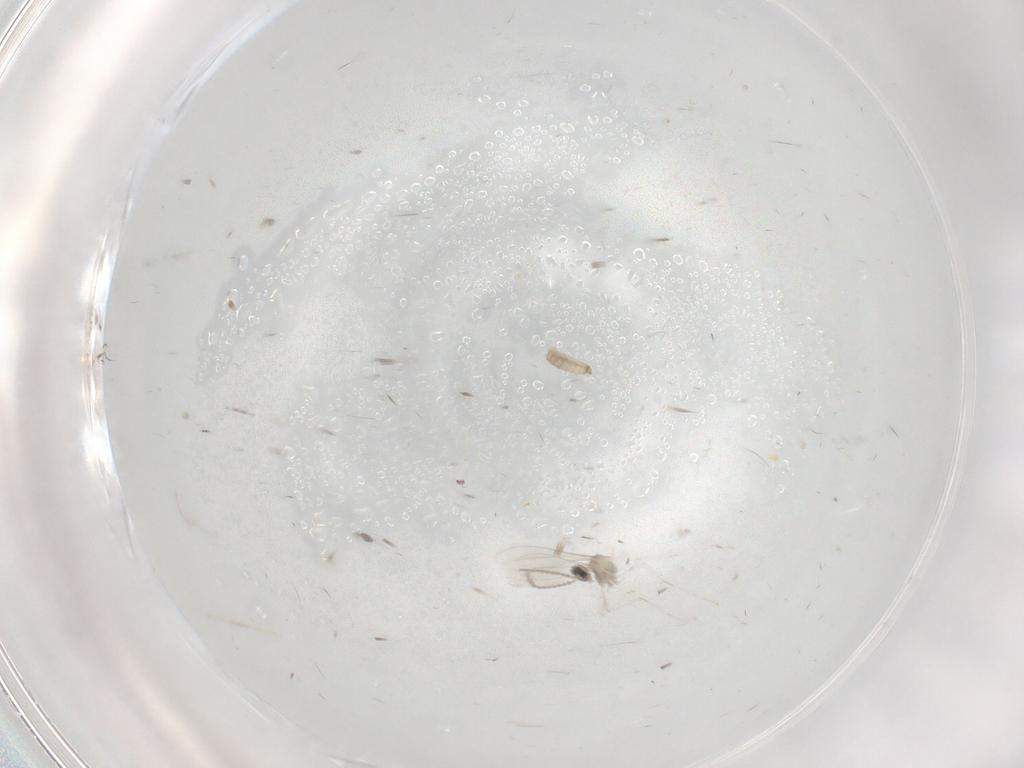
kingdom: Animalia
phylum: Arthropoda
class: Insecta
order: Diptera
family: Cecidomyiidae
